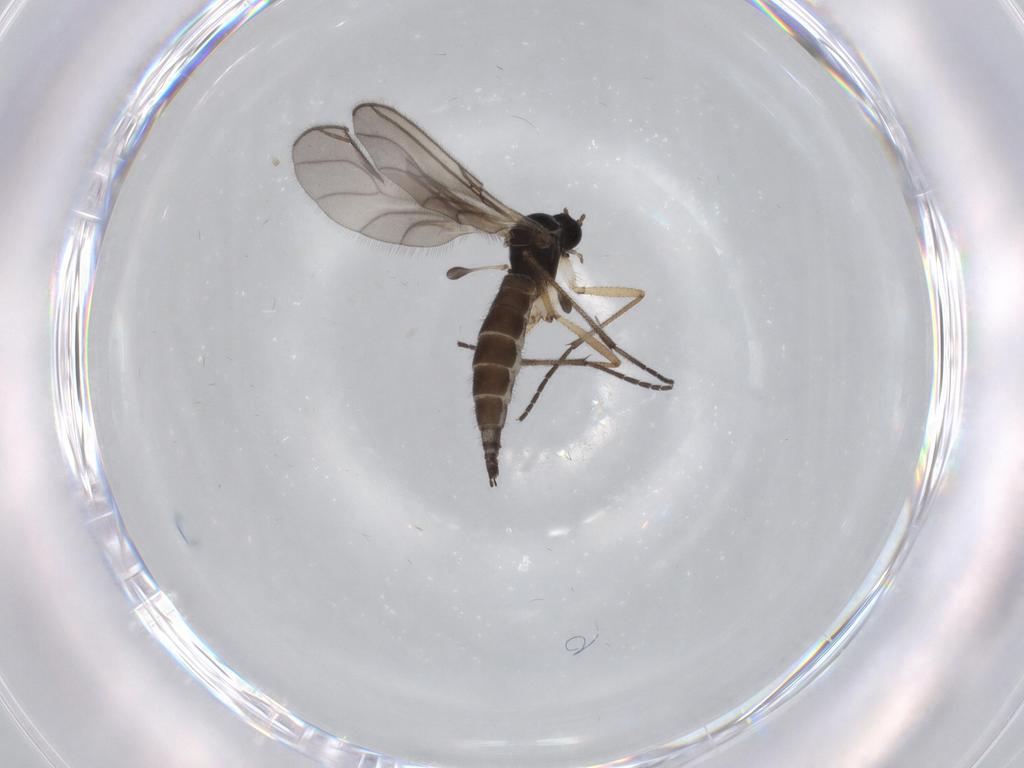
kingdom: Animalia
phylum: Arthropoda
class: Insecta
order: Diptera
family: Sciaridae
